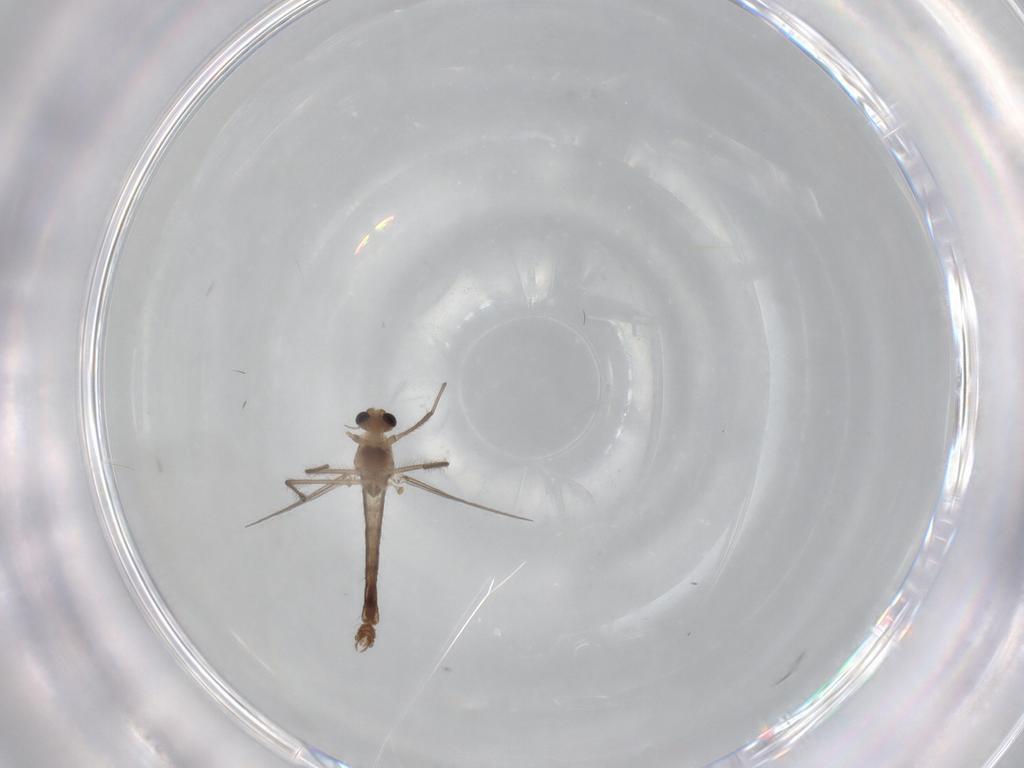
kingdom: Animalia
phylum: Arthropoda
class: Insecta
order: Diptera
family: Chironomidae
